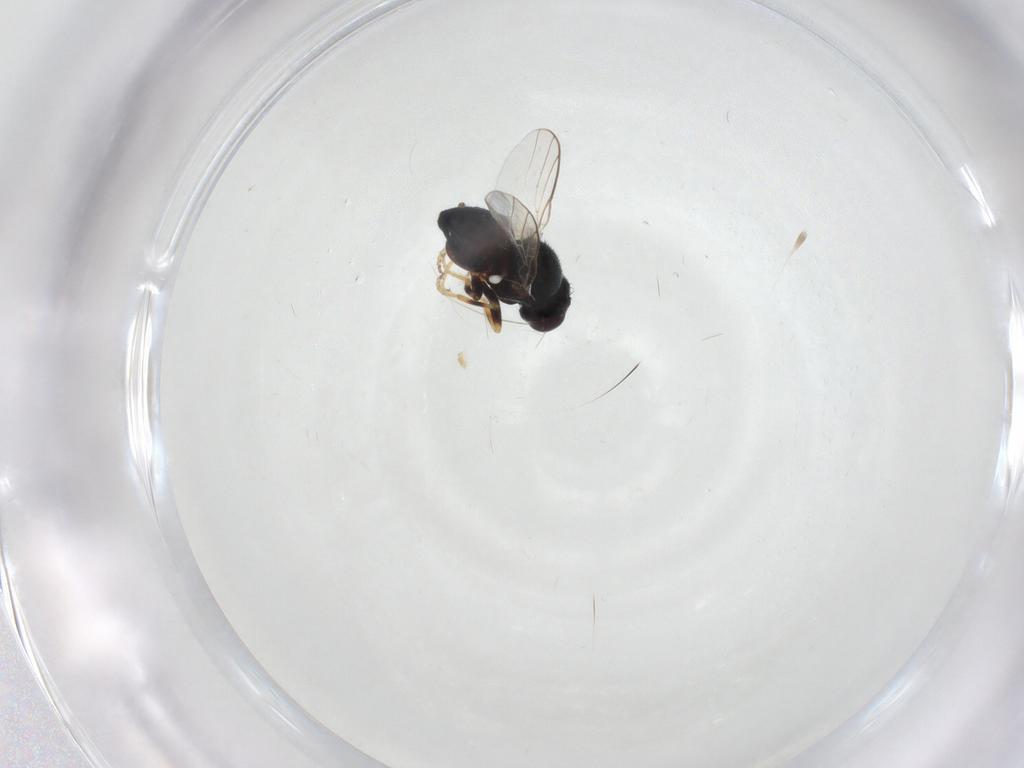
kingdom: Animalia
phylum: Arthropoda
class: Insecta
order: Diptera
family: Chloropidae
